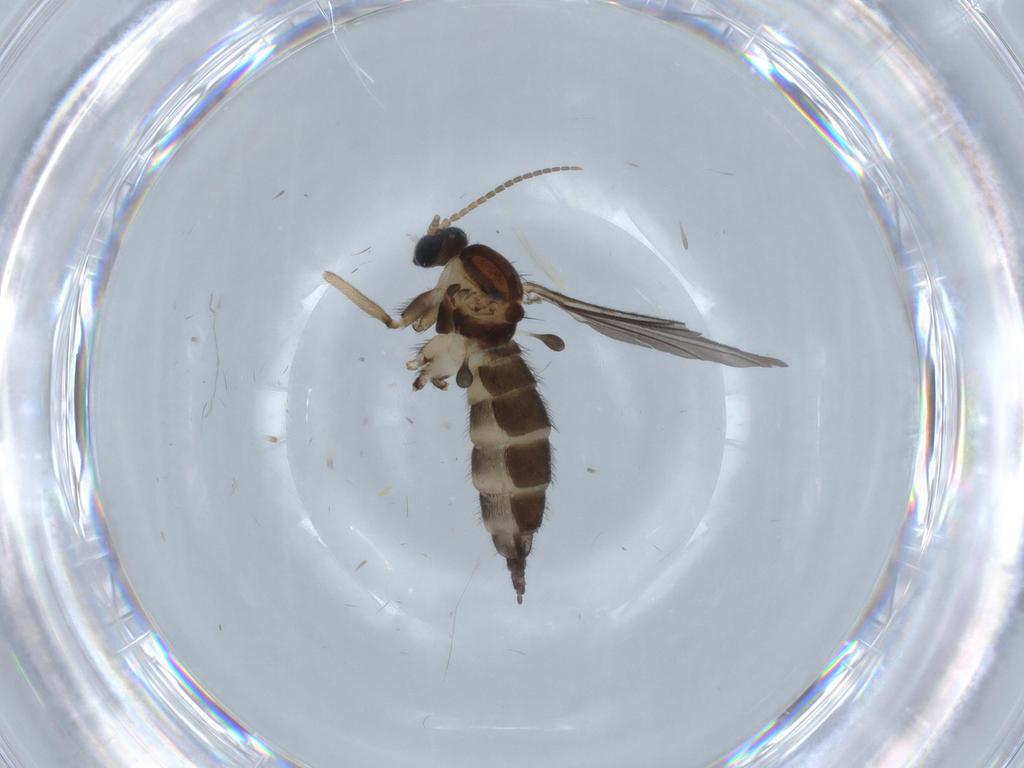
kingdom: Animalia
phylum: Arthropoda
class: Insecta
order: Diptera
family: Sciaridae
